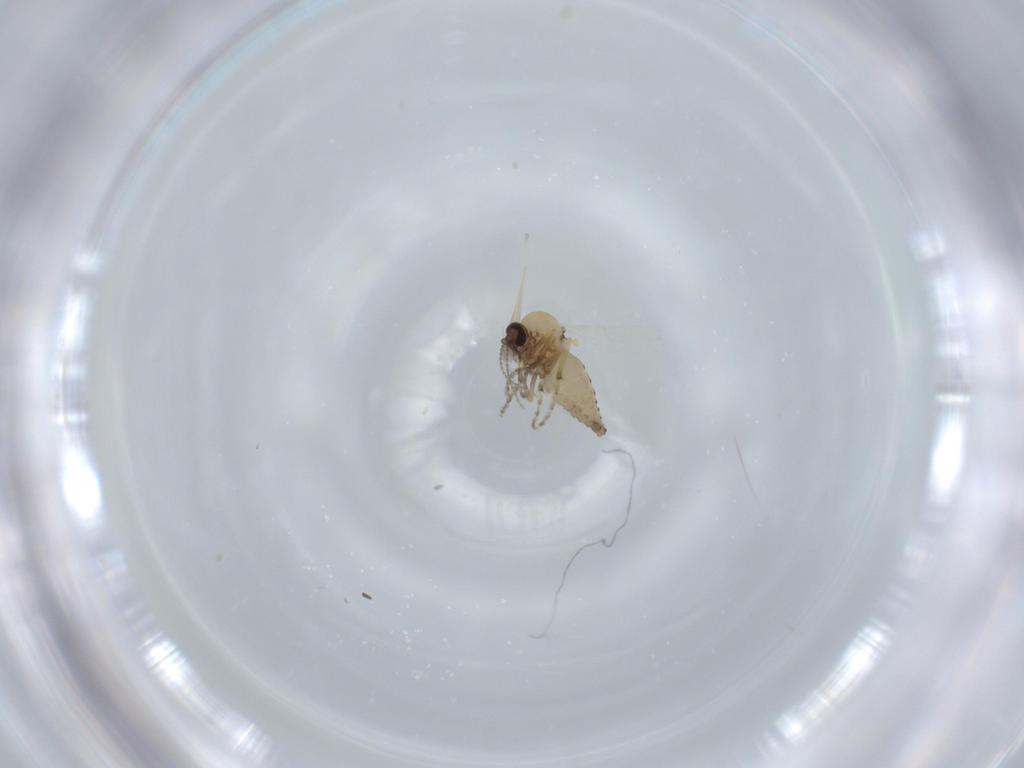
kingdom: Animalia
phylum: Arthropoda
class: Insecta
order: Diptera
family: Ceratopogonidae
